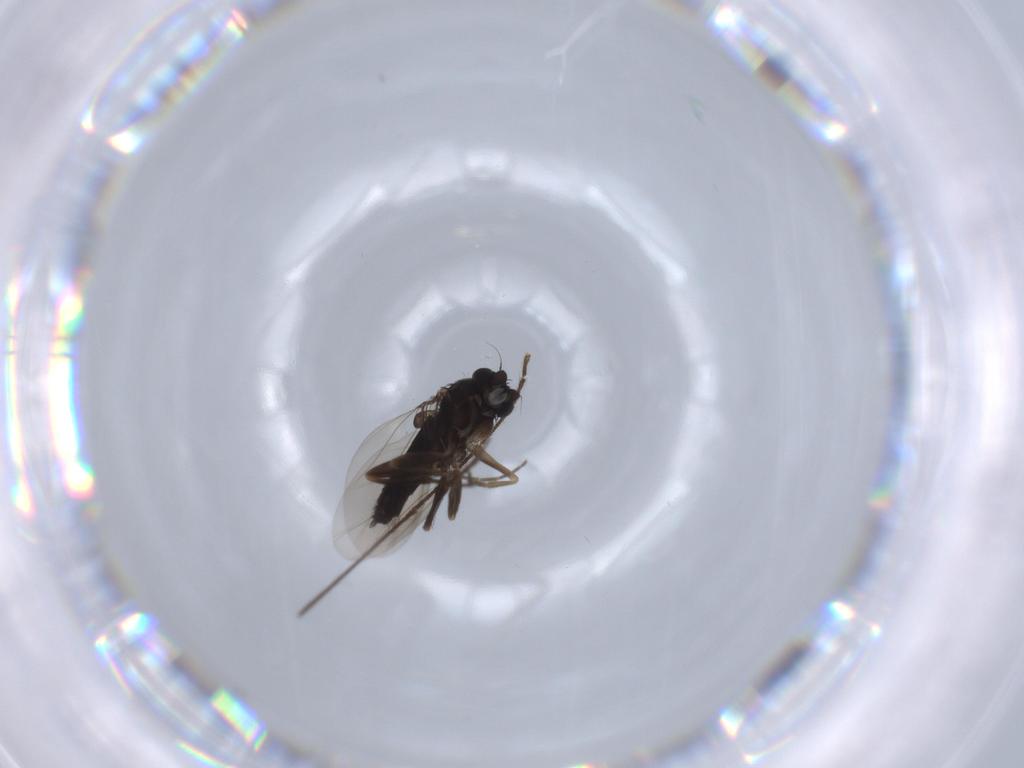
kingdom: Animalia
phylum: Arthropoda
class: Insecta
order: Diptera
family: Phoridae
